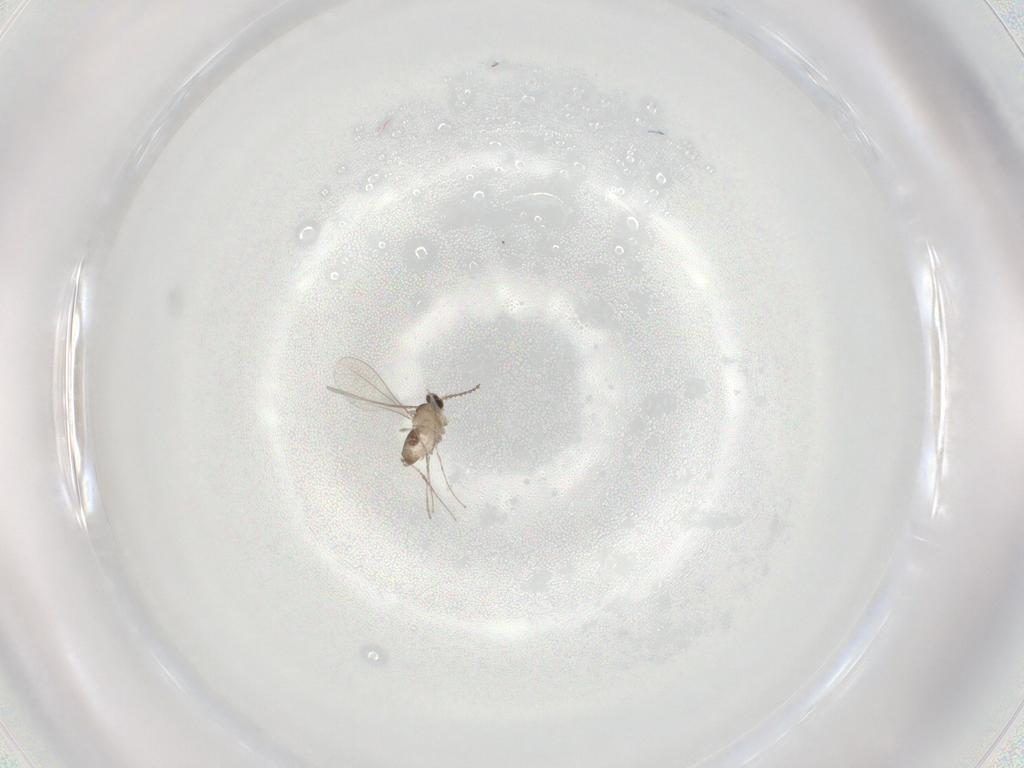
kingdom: Animalia
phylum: Arthropoda
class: Insecta
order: Diptera
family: Cecidomyiidae
